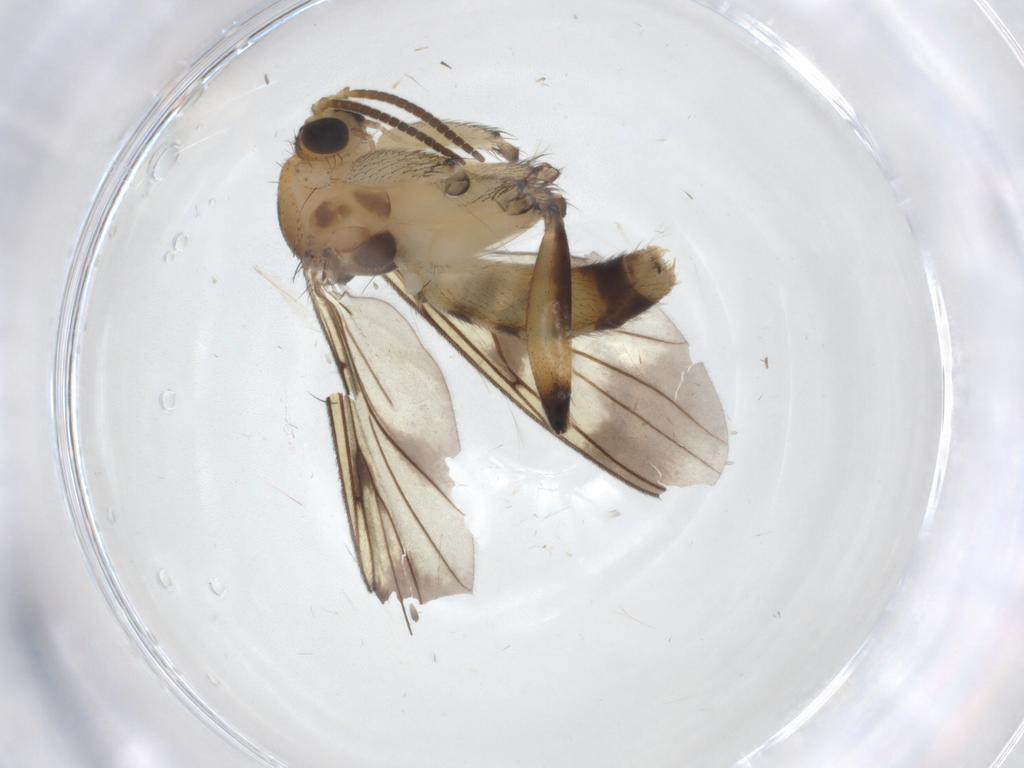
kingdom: Animalia
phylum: Arthropoda
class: Insecta
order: Diptera
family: Mycetophilidae
